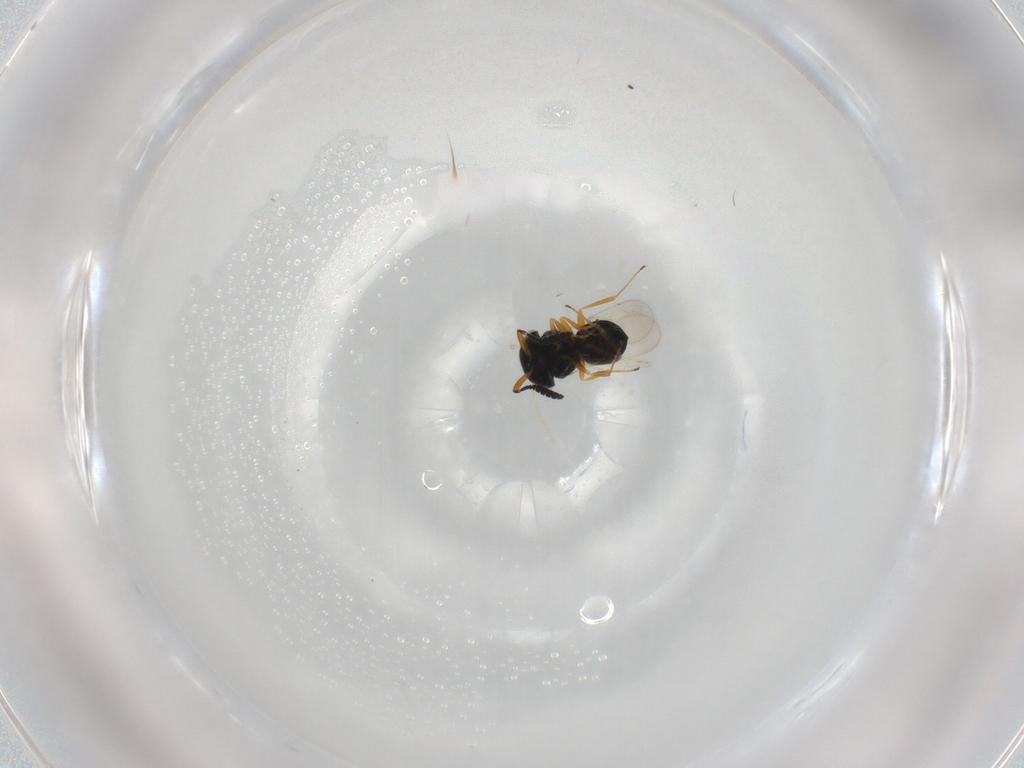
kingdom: Animalia
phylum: Arthropoda
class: Insecta
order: Hymenoptera
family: Scelionidae
